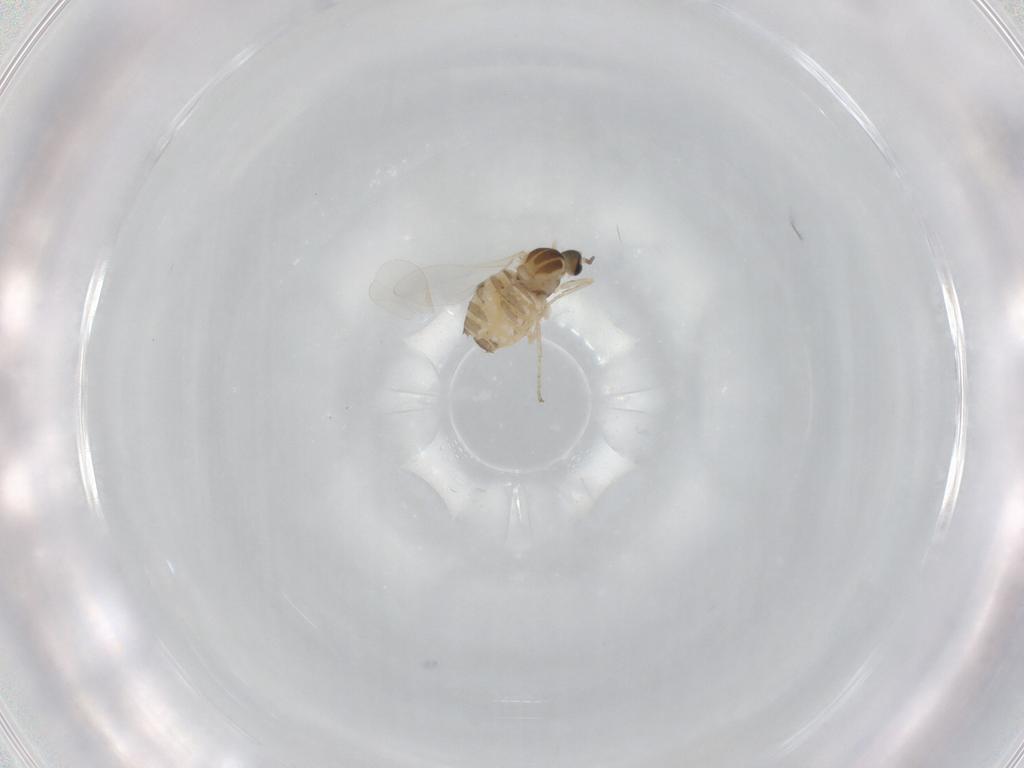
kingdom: Animalia
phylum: Arthropoda
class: Insecta
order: Diptera
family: Cecidomyiidae
